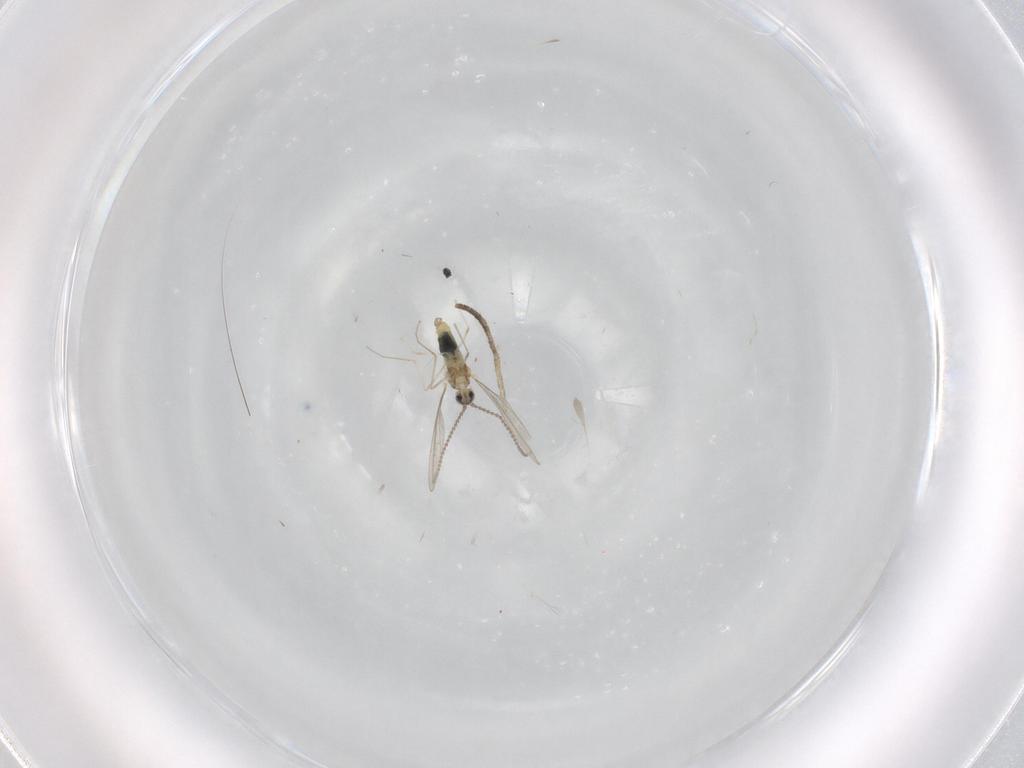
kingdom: Animalia
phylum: Arthropoda
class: Insecta
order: Diptera
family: Cecidomyiidae
